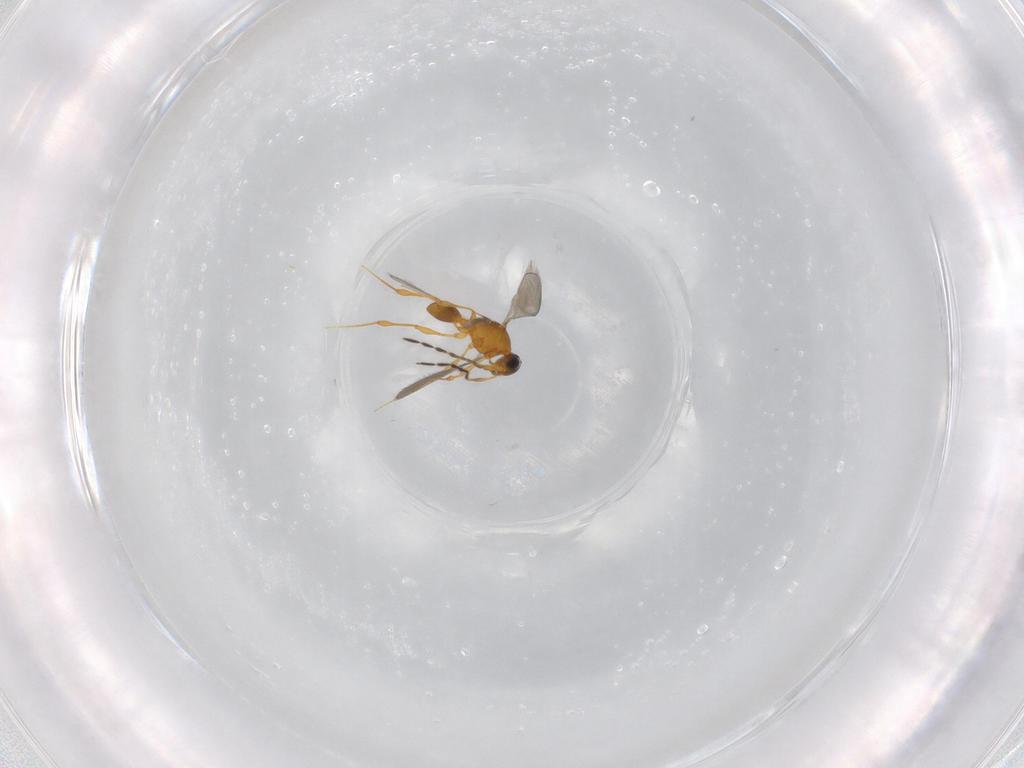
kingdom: Animalia
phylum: Arthropoda
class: Insecta
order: Hymenoptera
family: Platygastridae
